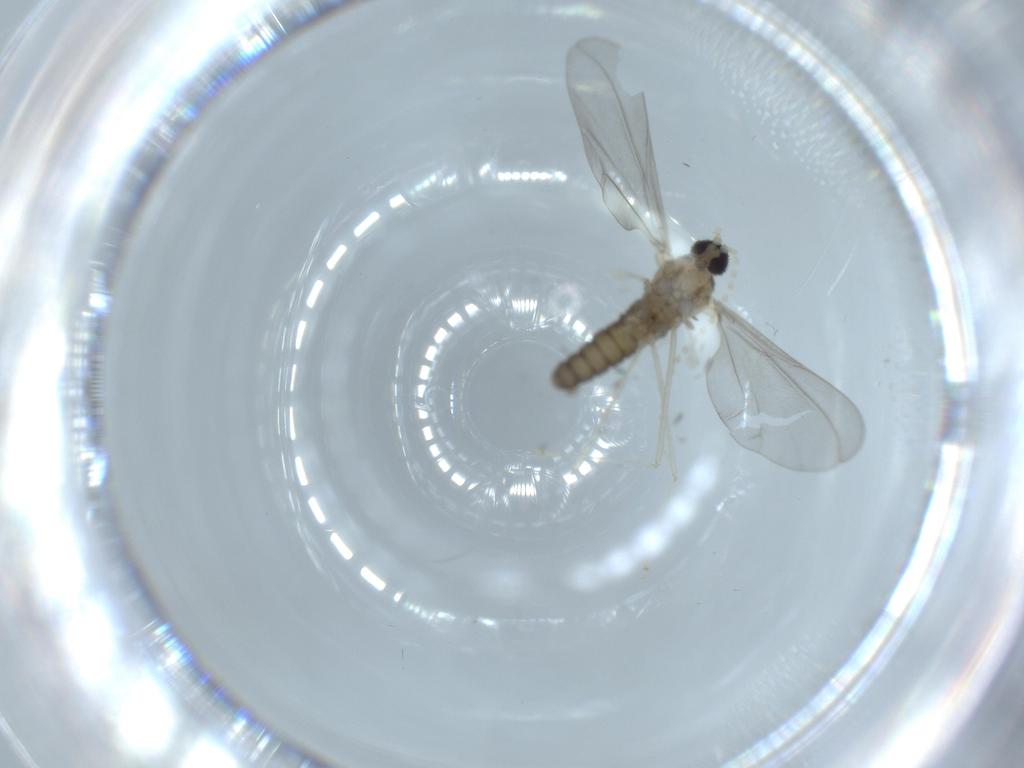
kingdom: Animalia
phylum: Arthropoda
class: Insecta
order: Diptera
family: Cecidomyiidae
